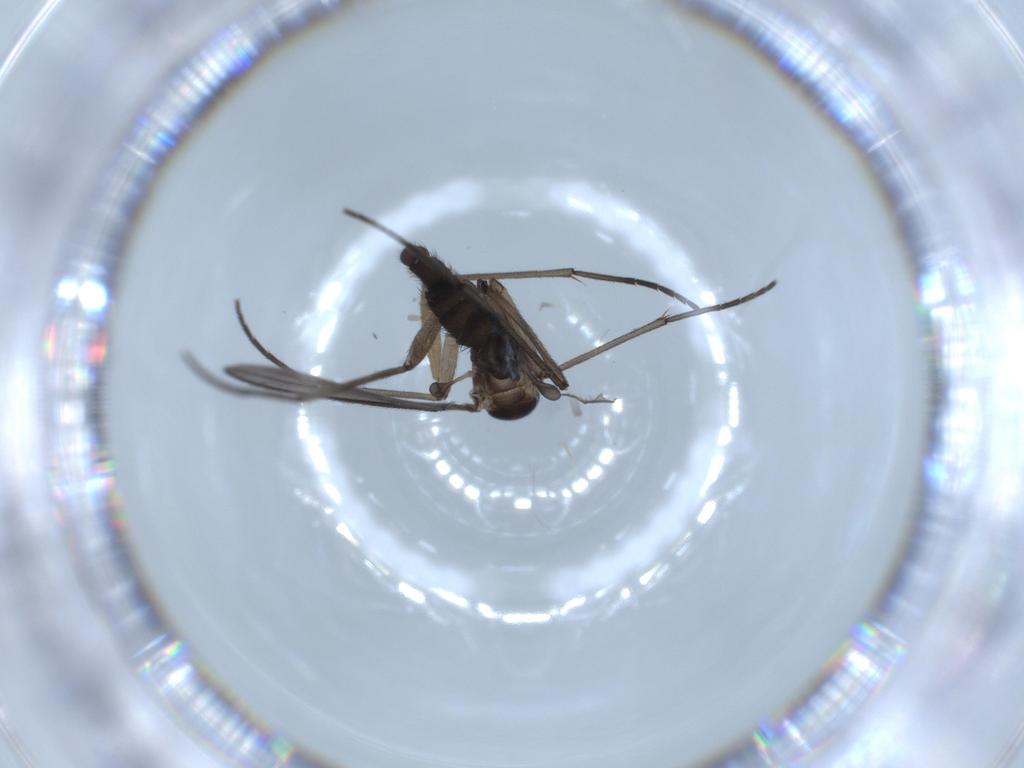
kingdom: Animalia
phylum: Arthropoda
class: Insecta
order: Diptera
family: Sciaridae
